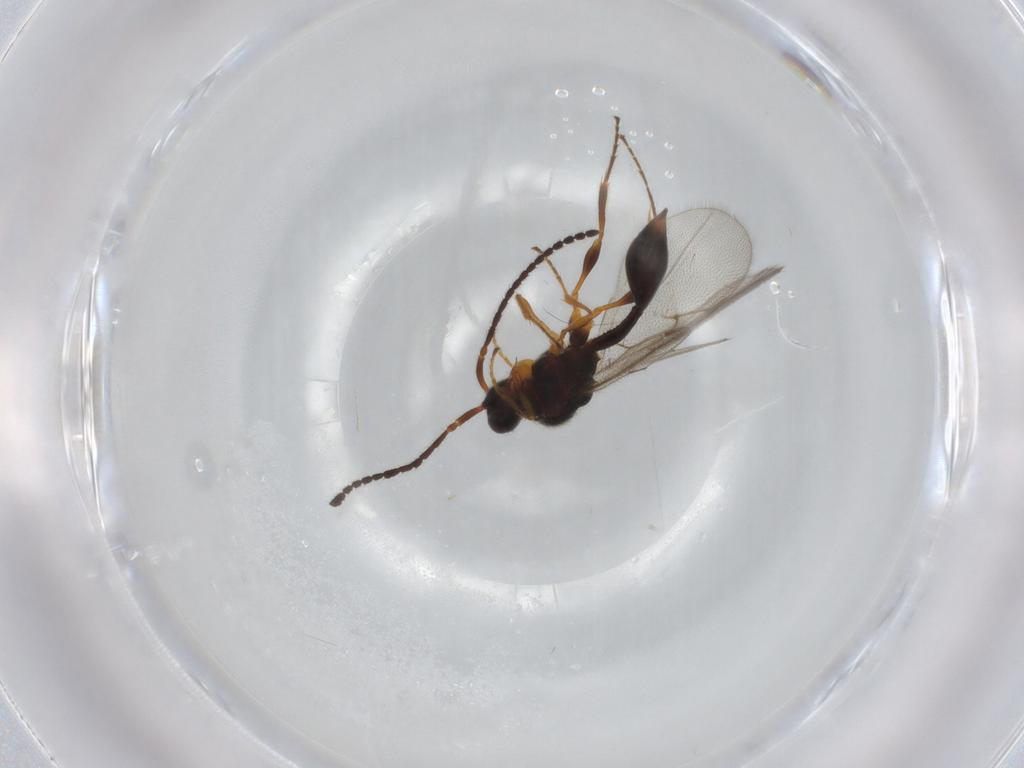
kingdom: Animalia
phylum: Arthropoda
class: Insecta
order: Hymenoptera
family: Diapriidae
